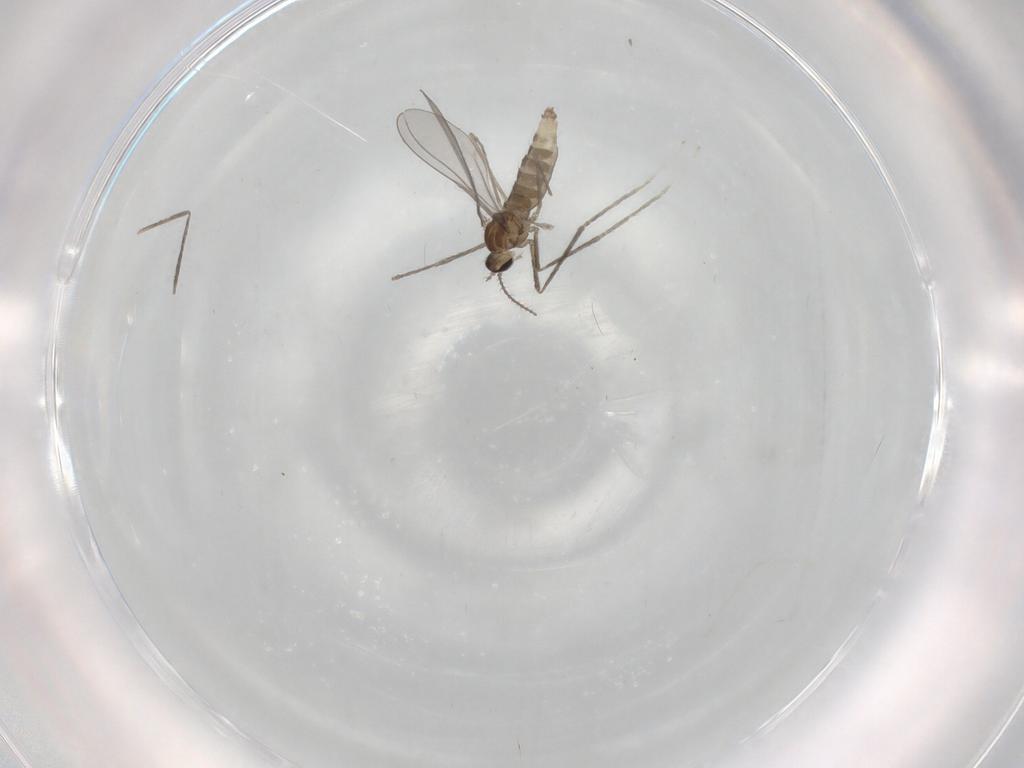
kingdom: Animalia
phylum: Arthropoda
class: Insecta
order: Diptera
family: Cecidomyiidae
